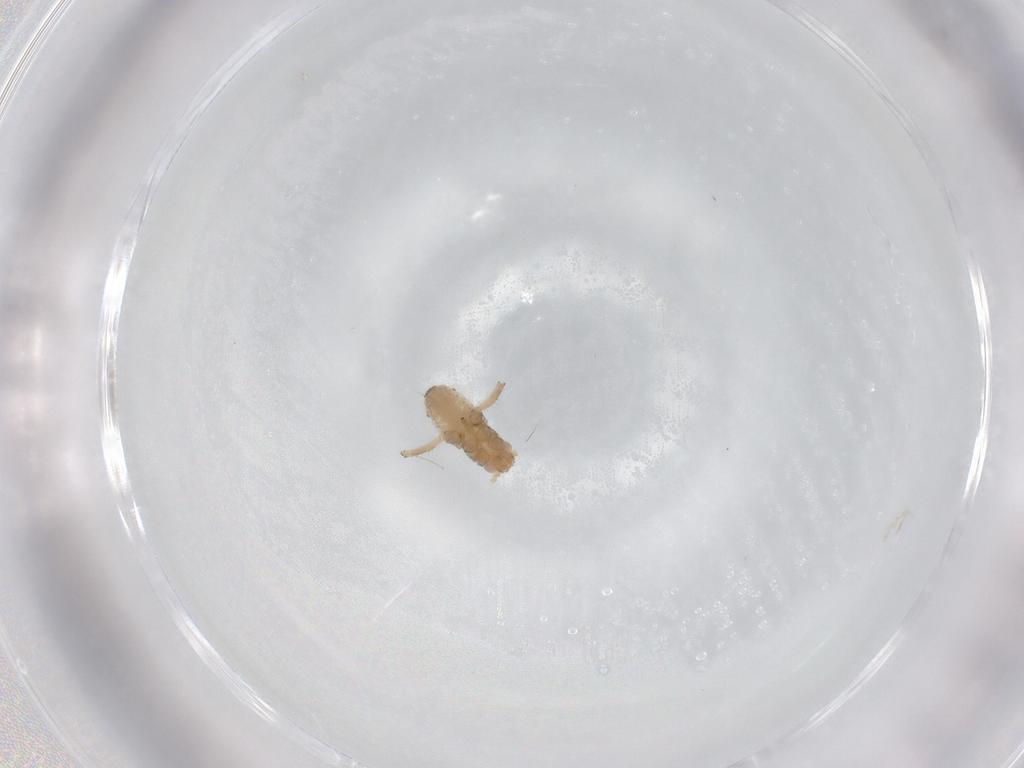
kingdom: Animalia
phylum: Arthropoda
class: Insecta
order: Hemiptera
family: Aphididae
